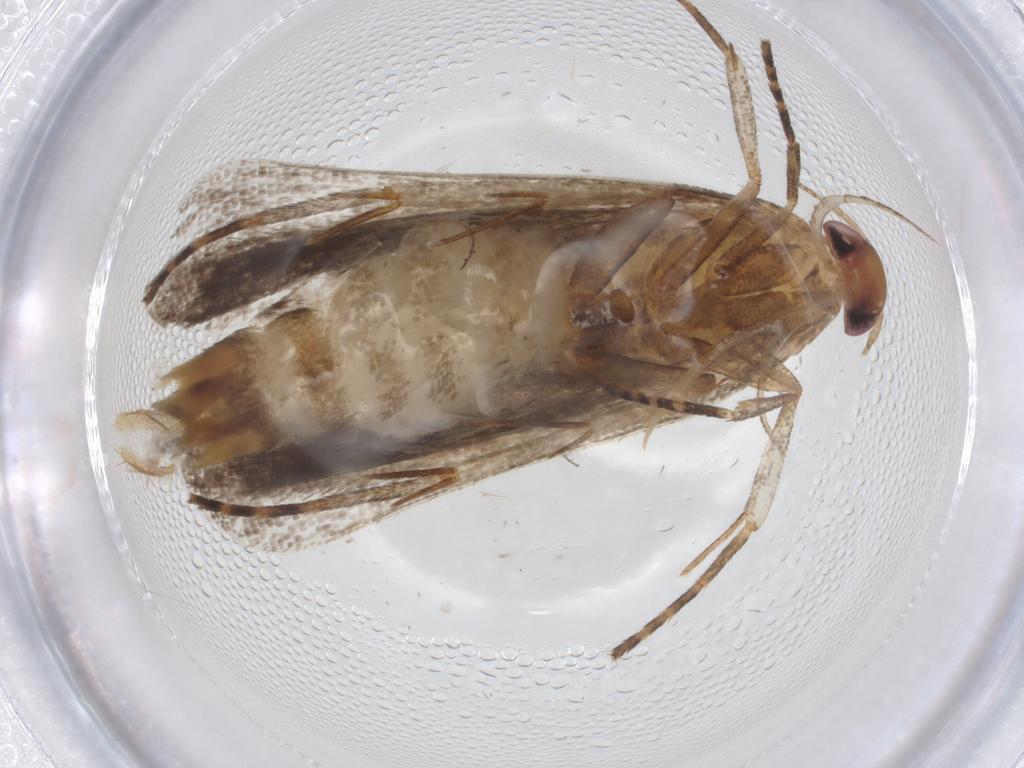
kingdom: Animalia
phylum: Arthropoda
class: Insecta
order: Lepidoptera
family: Gelechiidae
